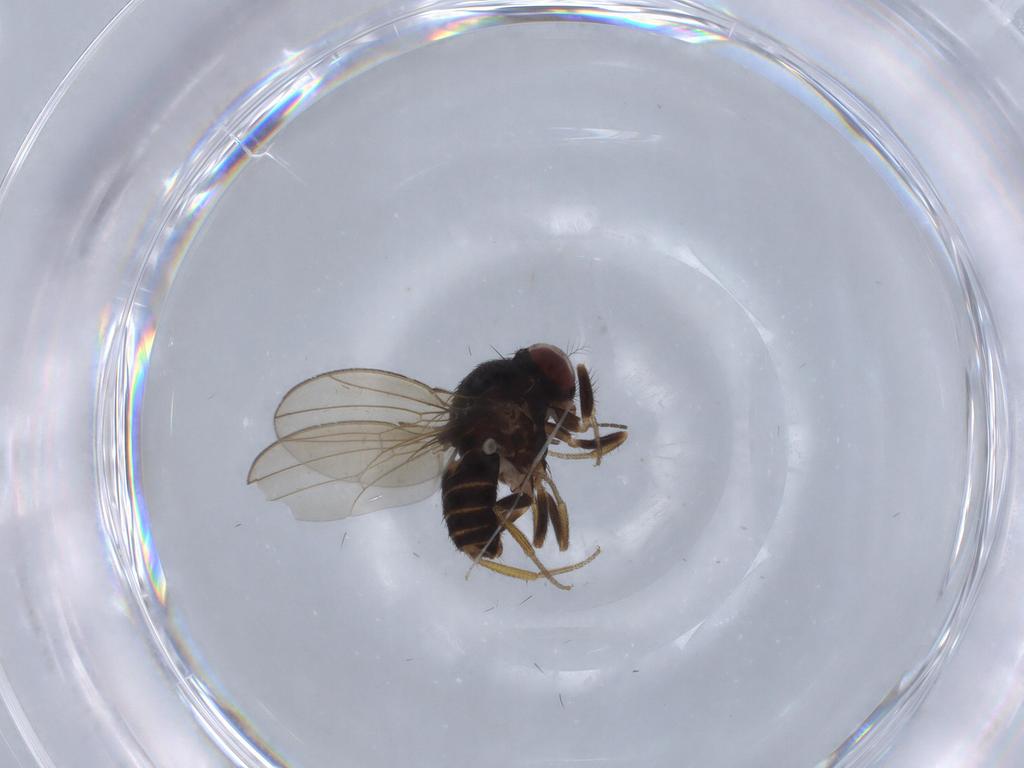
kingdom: Animalia
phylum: Arthropoda
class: Insecta
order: Diptera
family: Drosophilidae
